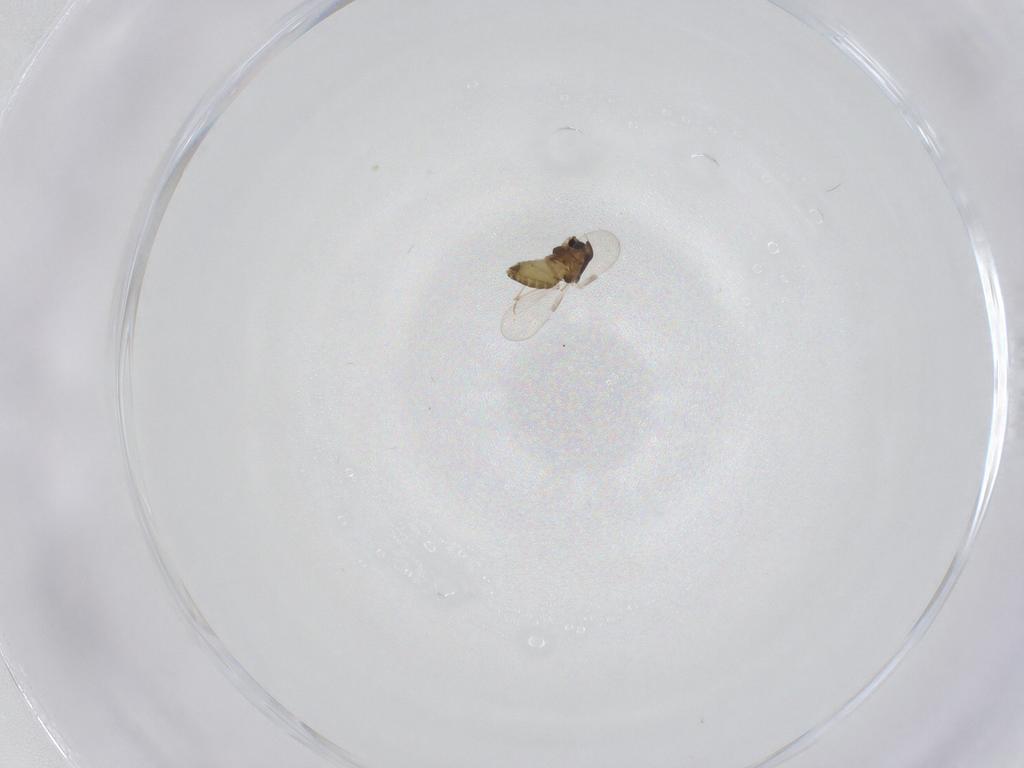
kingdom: Animalia
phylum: Arthropoda
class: Insecta
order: Diptera
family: Chironomidae
